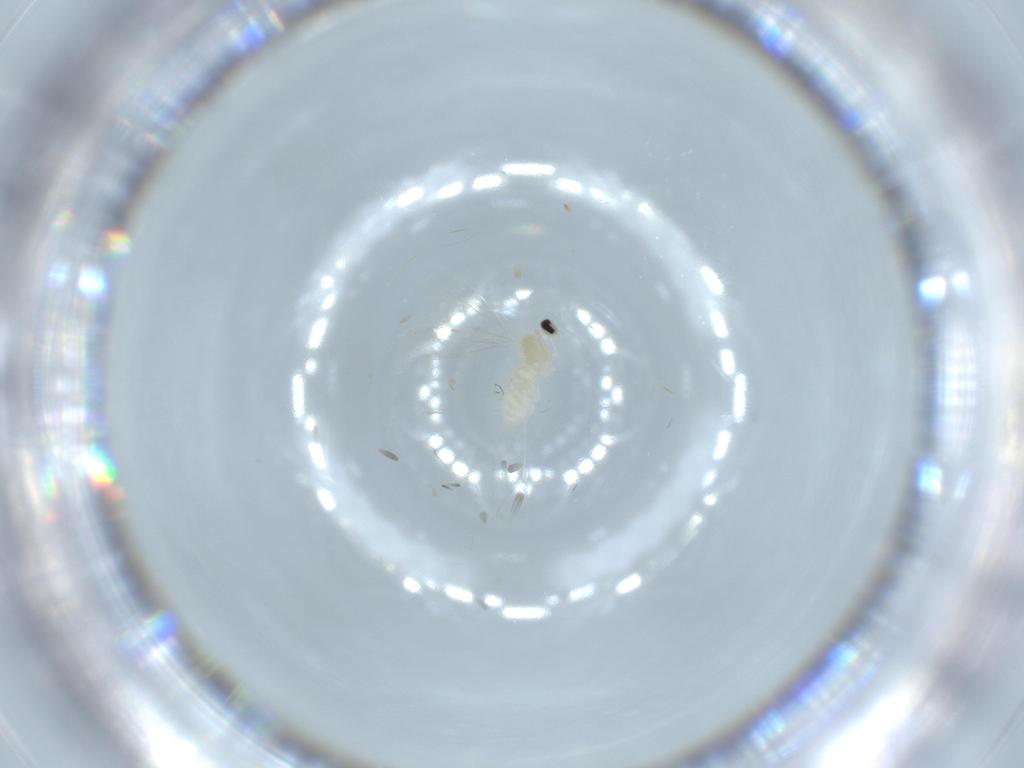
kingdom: Animalia
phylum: Arthropoda
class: Insecta
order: Diptera
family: Cecidomyiidae
